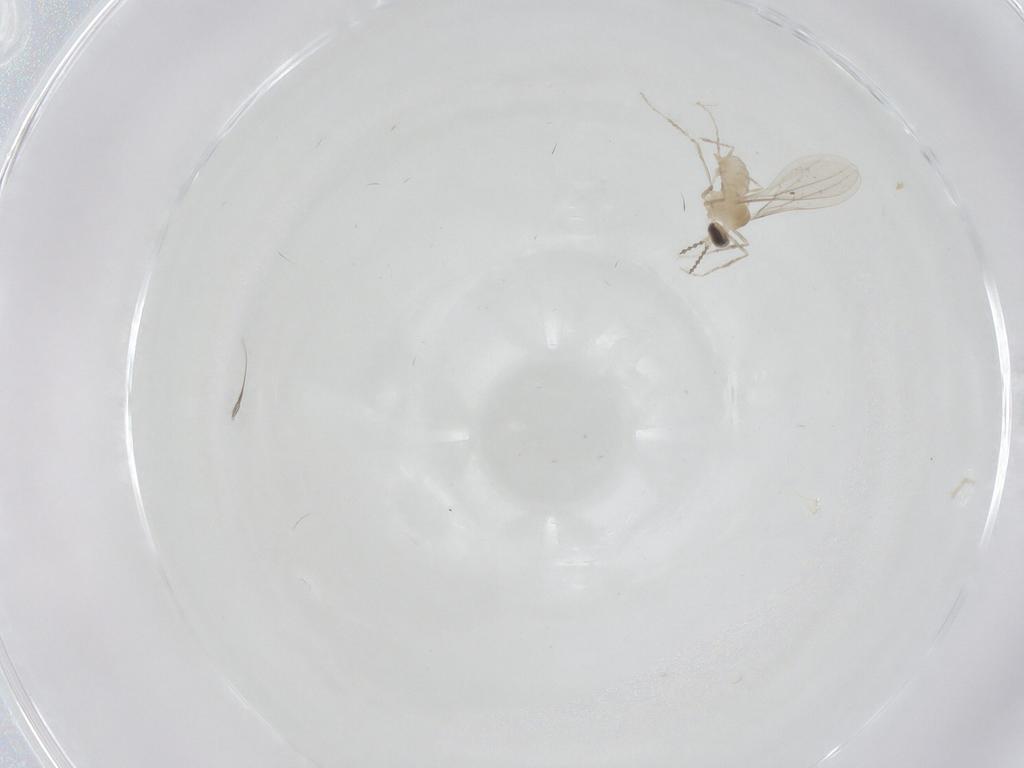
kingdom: Animalia
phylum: Arthropoda
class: Insecta
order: Diptera
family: Cecidomyiidae
